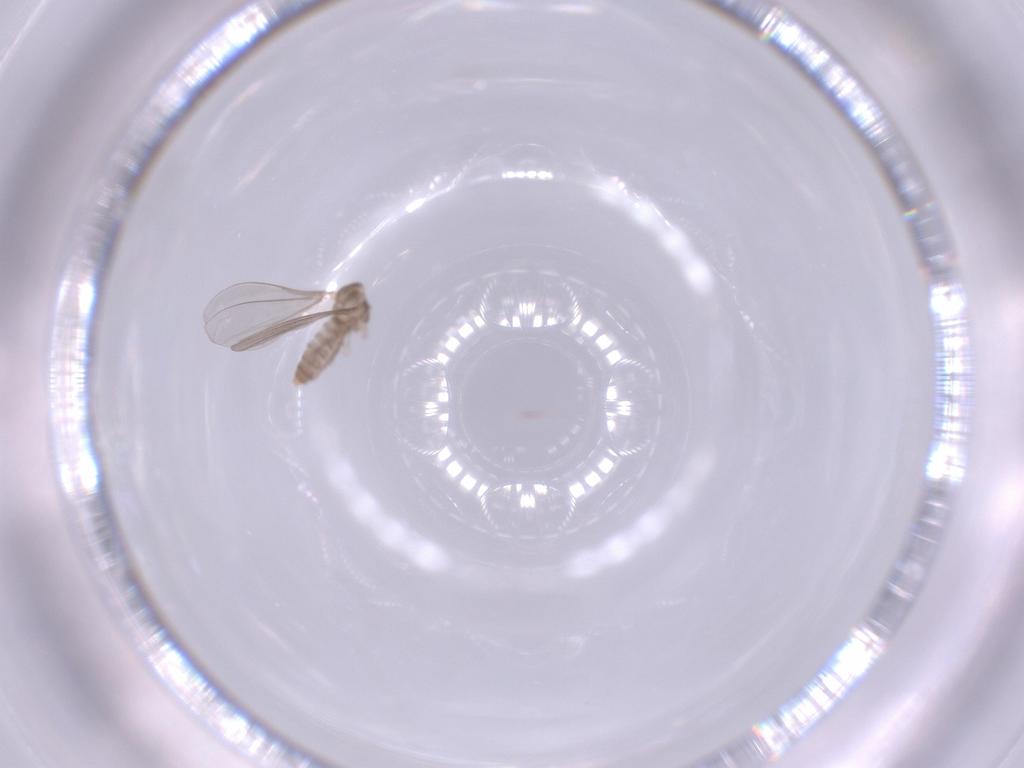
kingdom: Animalia
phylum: Arthropoda
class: Insecta
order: Diptera
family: Cecidomyiidae
